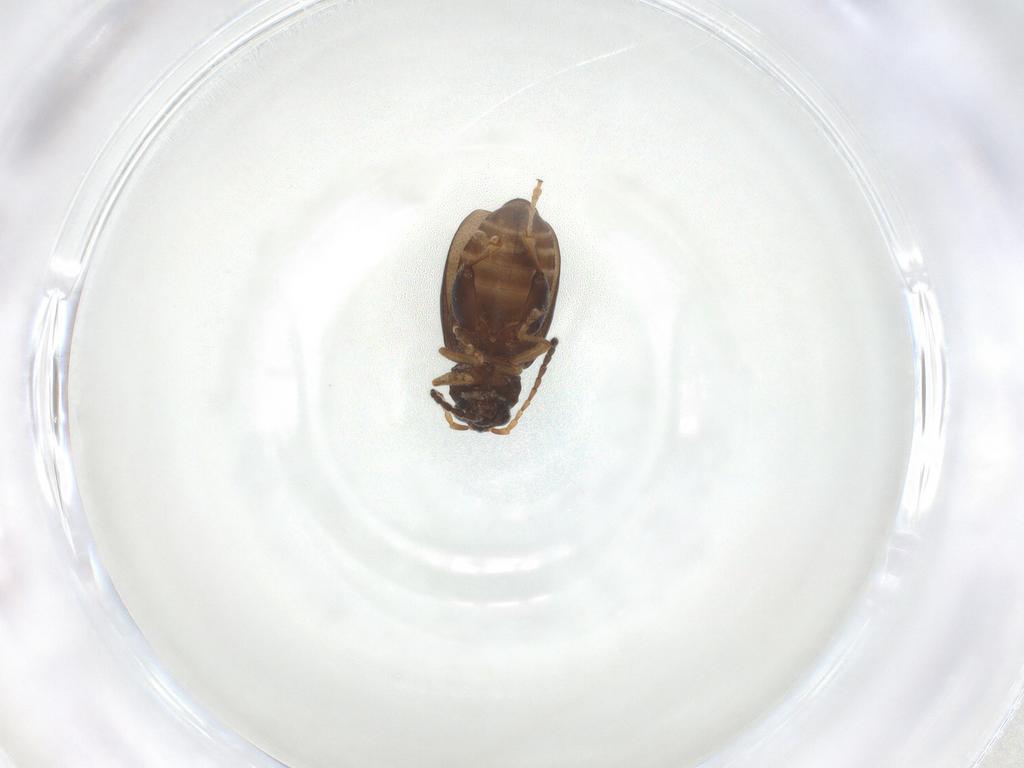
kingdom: Animalia
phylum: Arthropoda
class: Insecta
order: Coleoptera
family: Chrysomelidae
